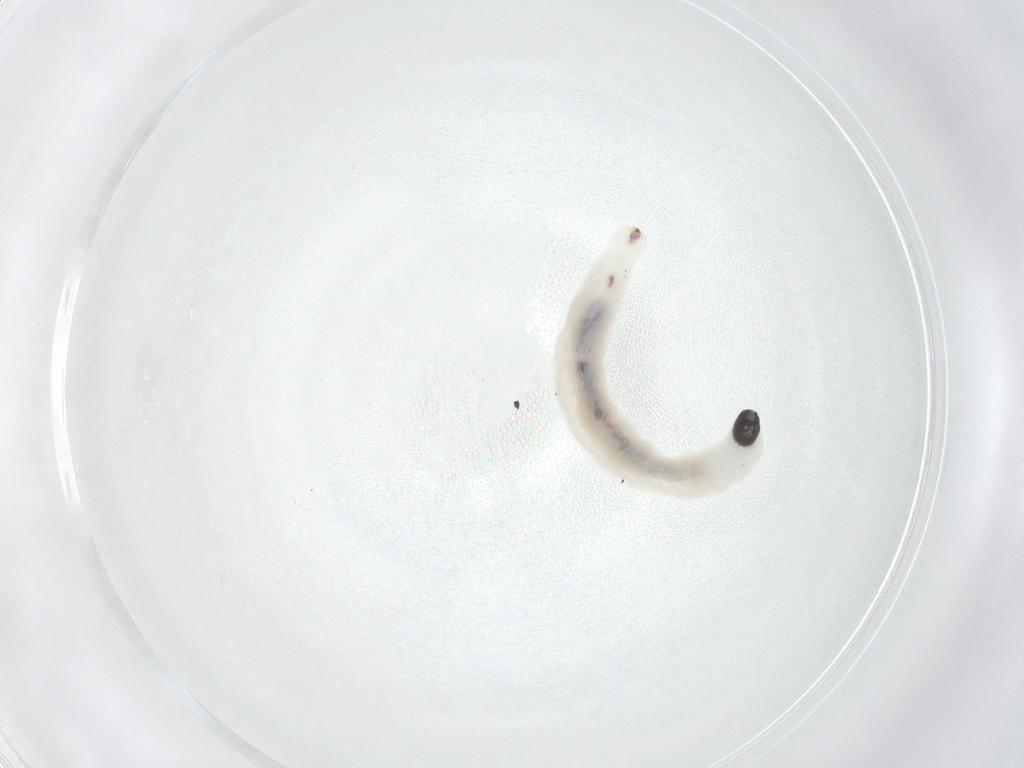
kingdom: Animalia
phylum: Arthropoda
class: Insecta
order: Diptera
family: Sciaridae
